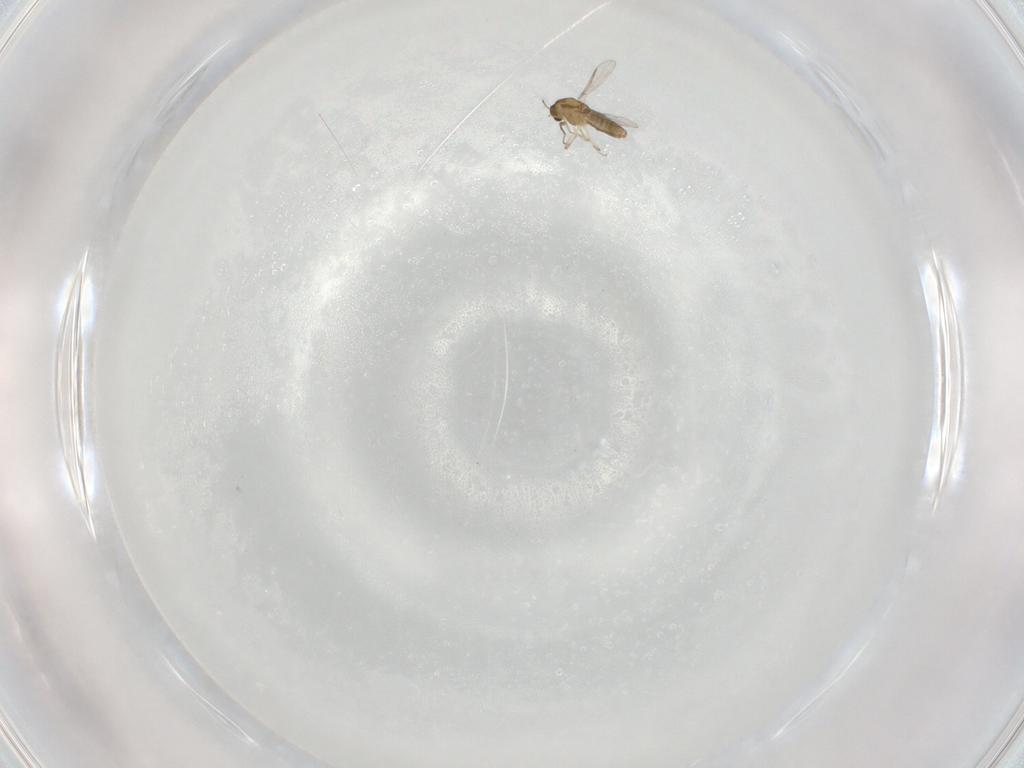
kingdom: Animalia
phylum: Arthropoda
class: Insecta
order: Diptera
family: Chironomidae
